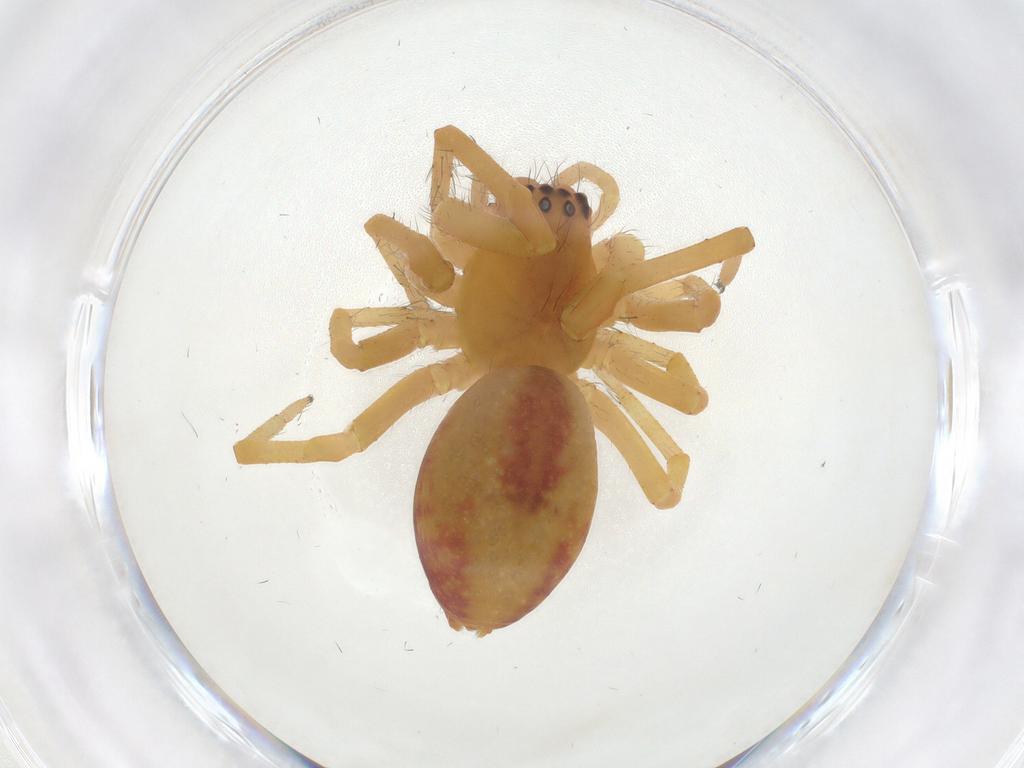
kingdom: Animalia
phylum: Arthropoda
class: Arachnida
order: Araneae
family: Mimetidae
